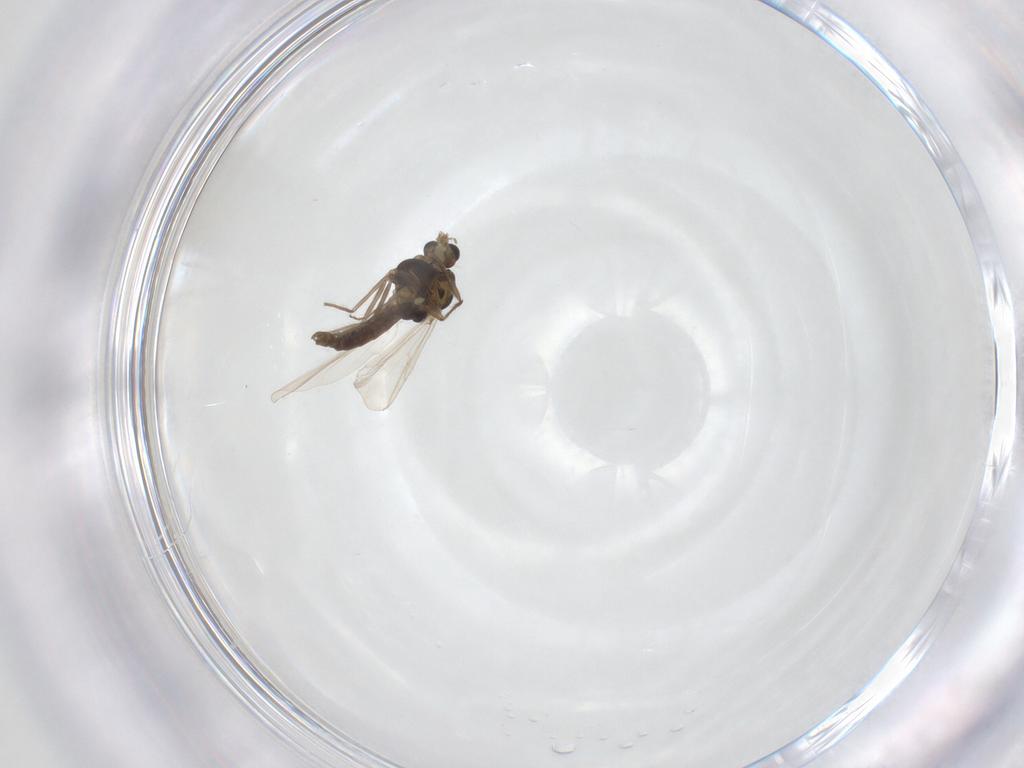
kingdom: Animalia
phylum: Arthropoda
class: Insecta
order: Diptera
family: Chironomidae
